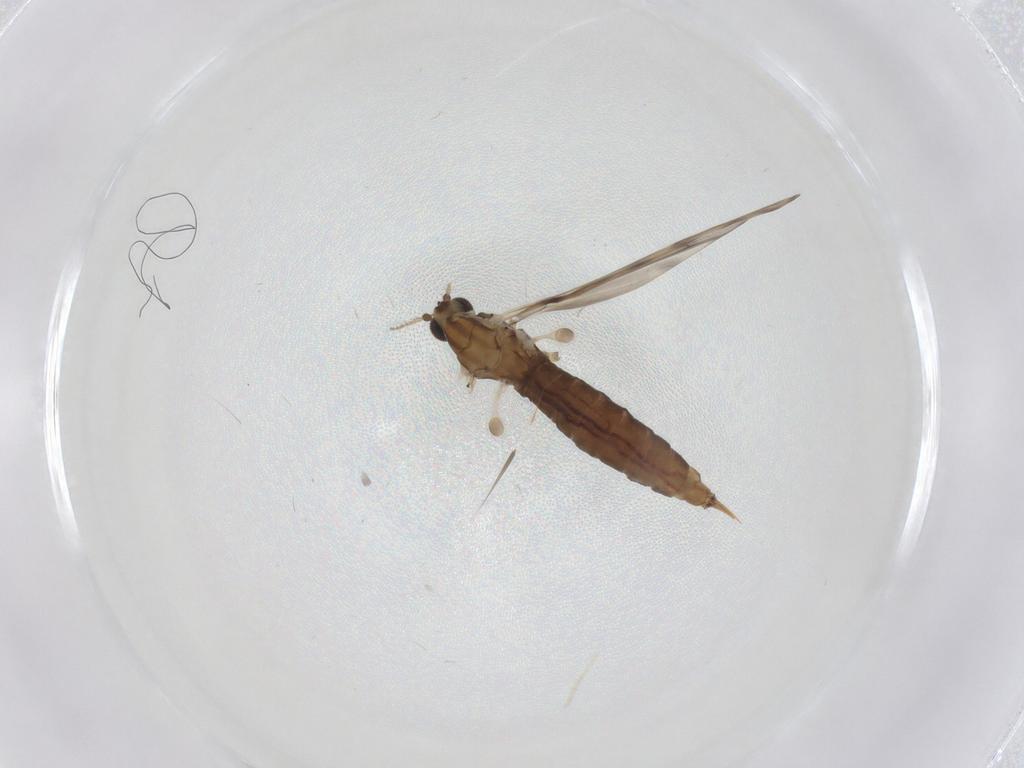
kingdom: Animalia
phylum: Arthropoda
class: Insecta
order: Diptera
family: Limoniidae
